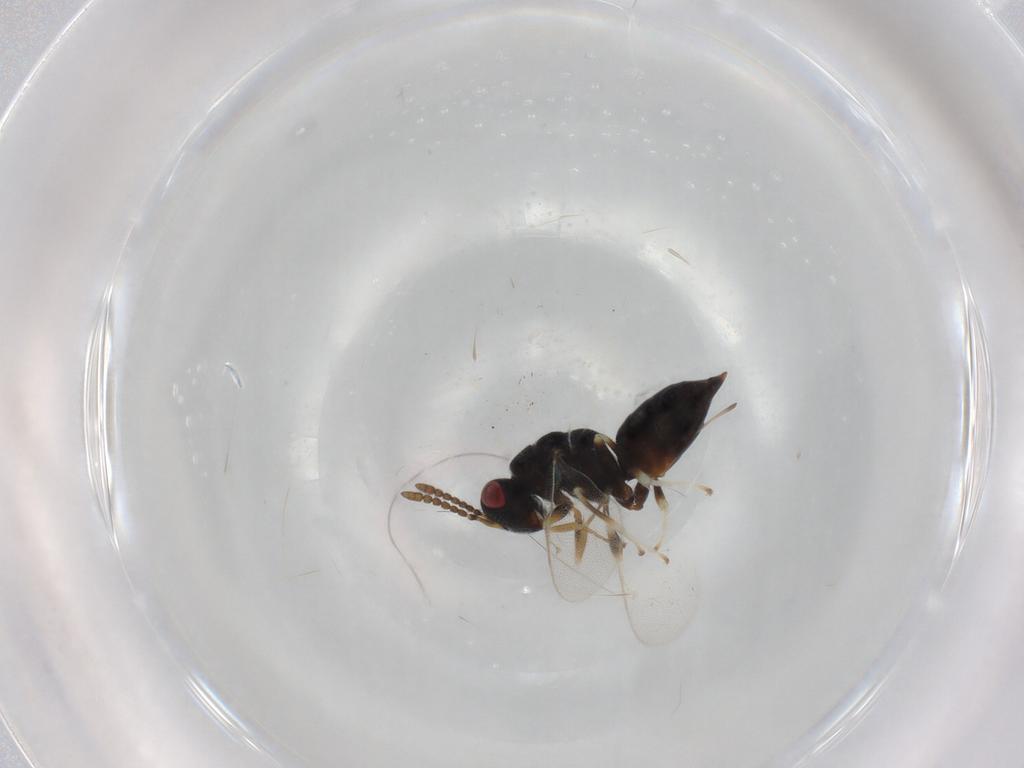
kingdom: Animalia
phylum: Arthropoda
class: Insecta
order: Hymenoptera
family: Eurytomidae
